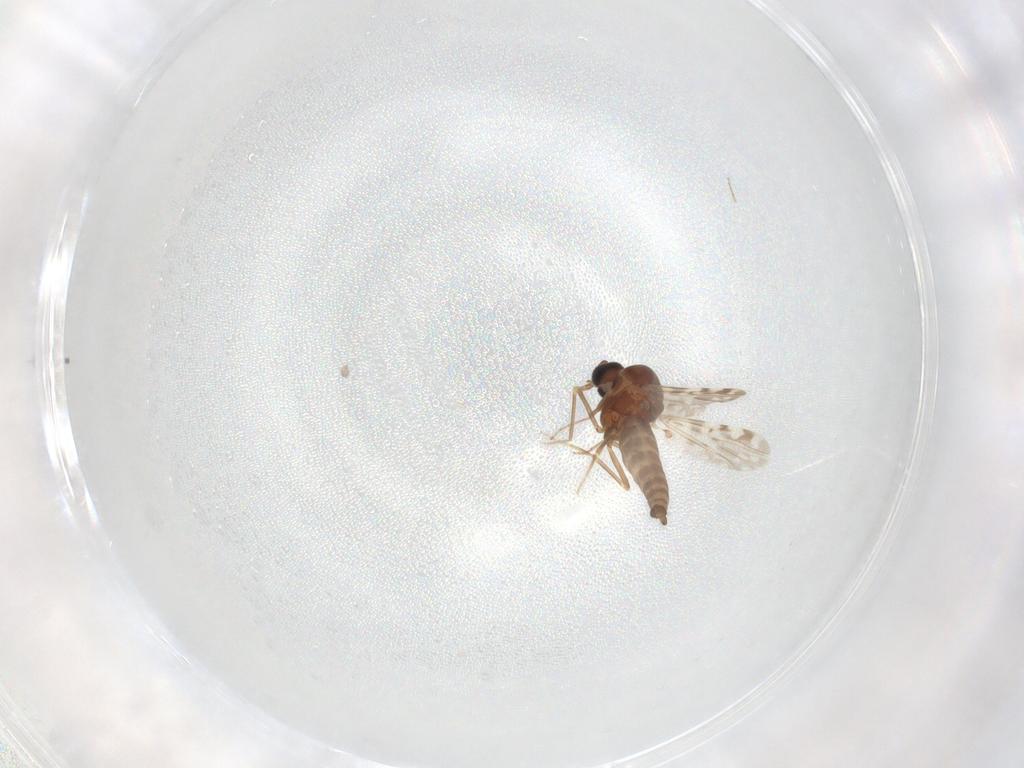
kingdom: Animalia
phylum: Arthropoda
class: Insecta
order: Diptera
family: Ceratopogonidae
